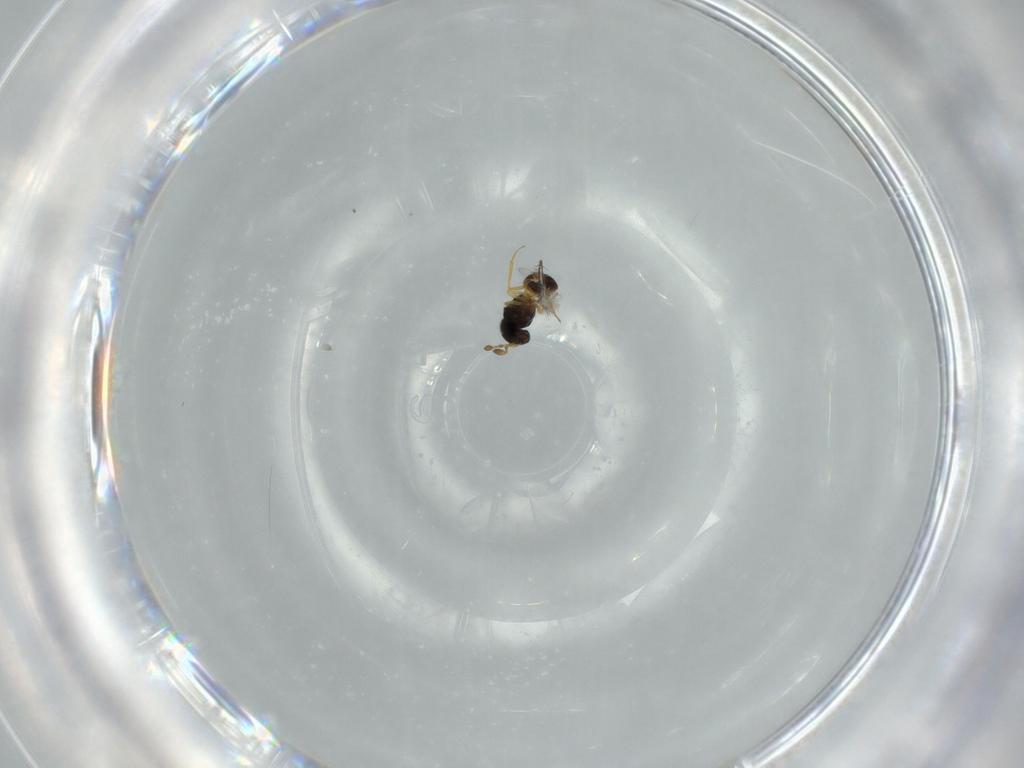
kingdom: Animalia
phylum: Arthropoda
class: Insecta
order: Hymenoptera
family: Scelionidae
